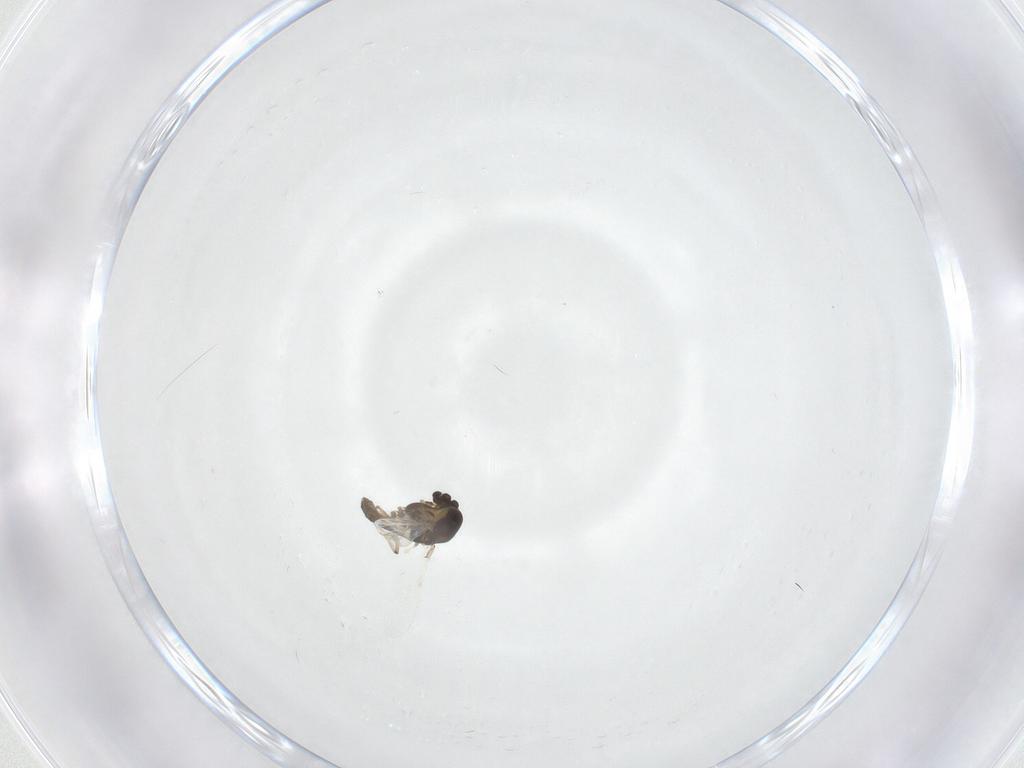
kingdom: Animalia
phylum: Arthropoda
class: Insecta
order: Diptera
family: Chironomidae
